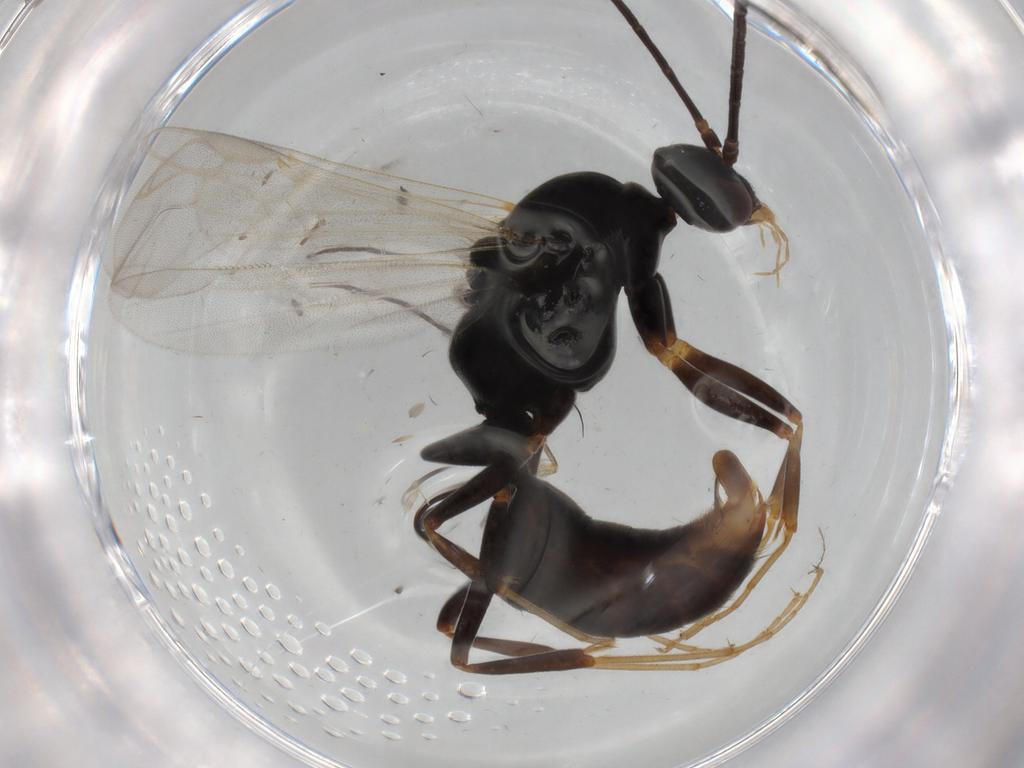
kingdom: Animalia
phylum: Arthropoda
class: Insecta
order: Hymenoptera
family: Formicidae
